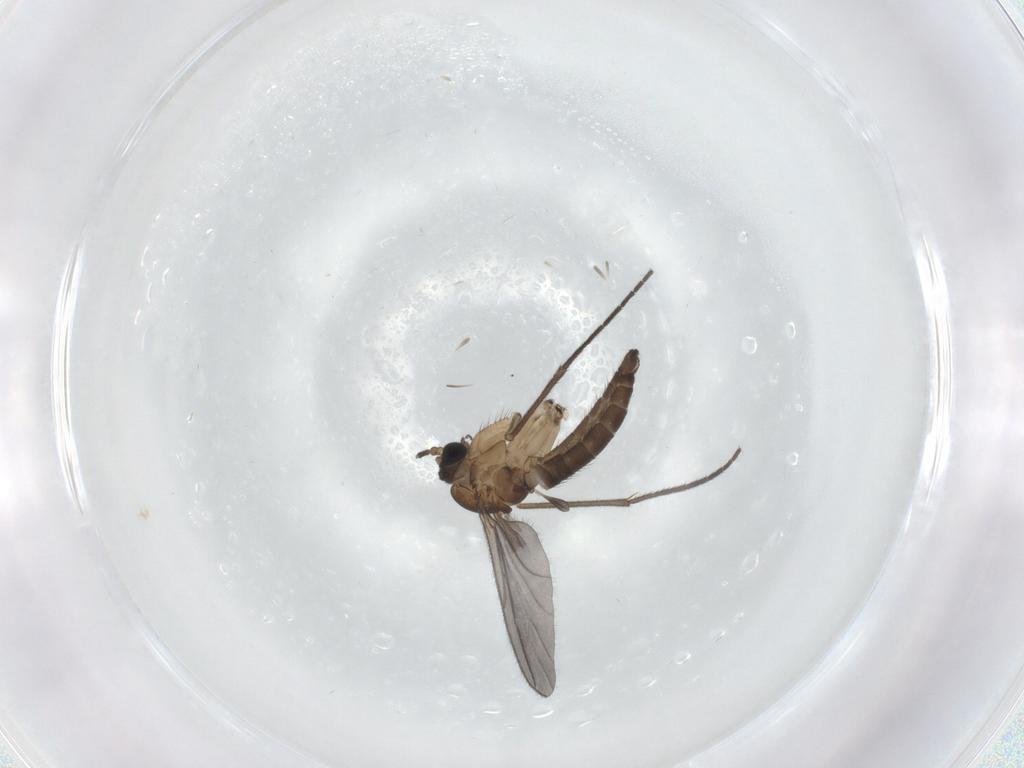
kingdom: Animalia
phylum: Arthropoda
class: Insecta
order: Diptera
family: Sciaridae
